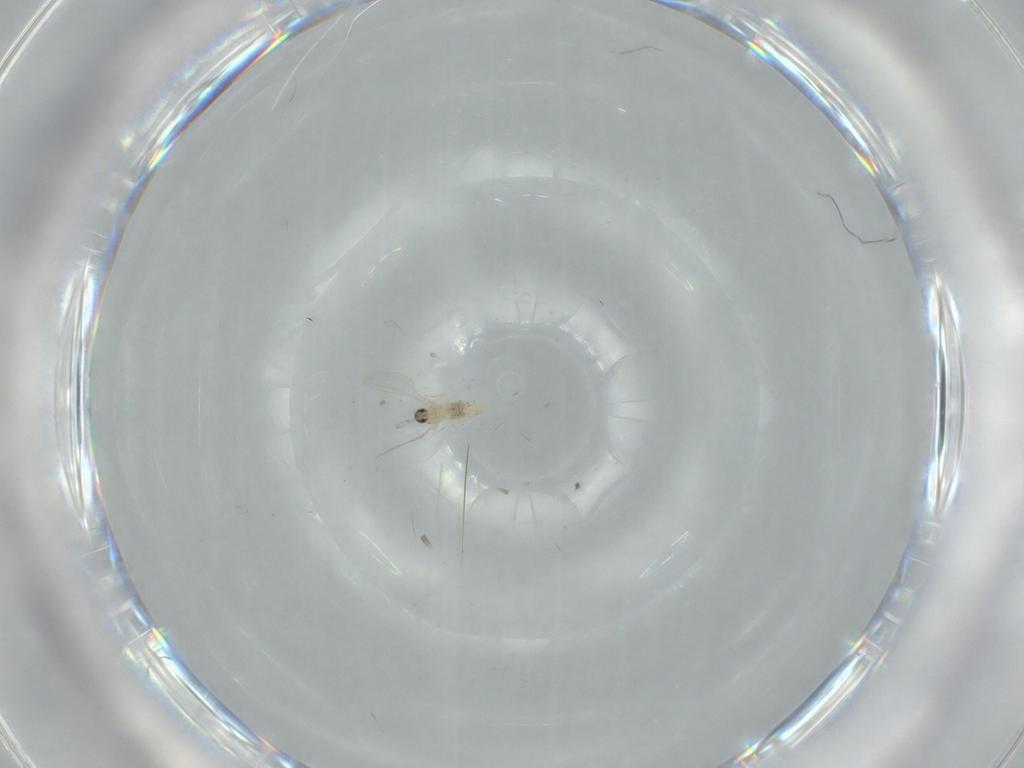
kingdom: Animalia
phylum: Arthropoda
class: Insecta
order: Diptera
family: Cecidomyiidae
